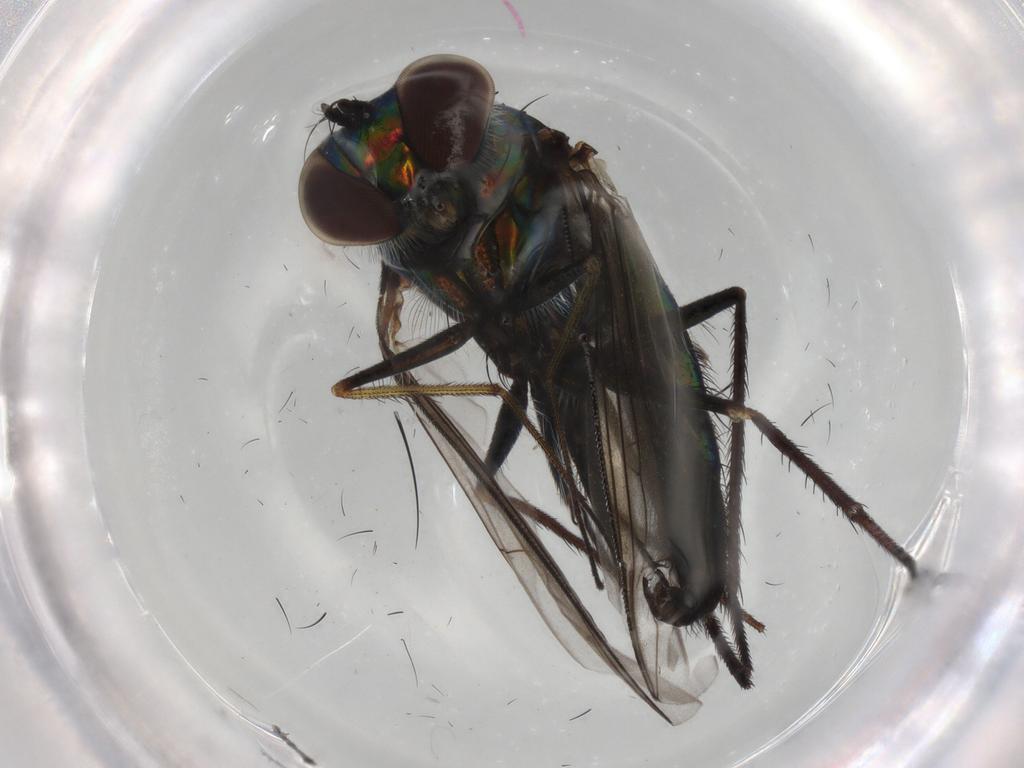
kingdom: Animalia
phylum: Arthropoda
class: Insecta
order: Diptera
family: Dolichopodidae
